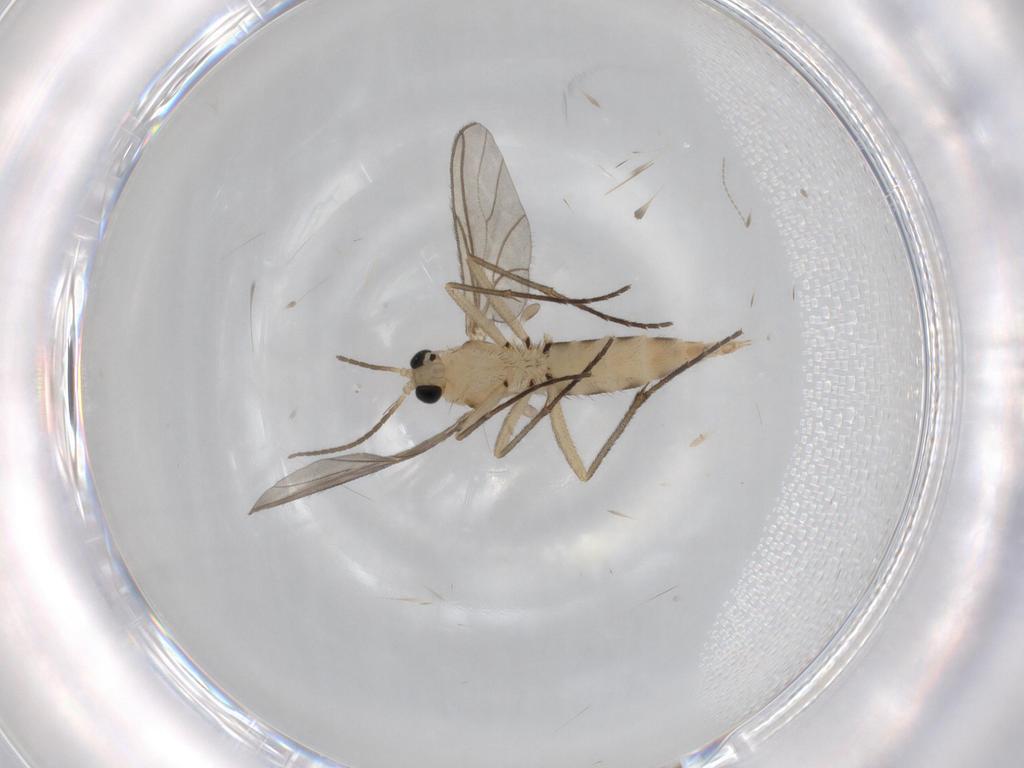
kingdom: Animalia
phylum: Arthropoda
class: Insecta
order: Diptera
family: Sciaridae
